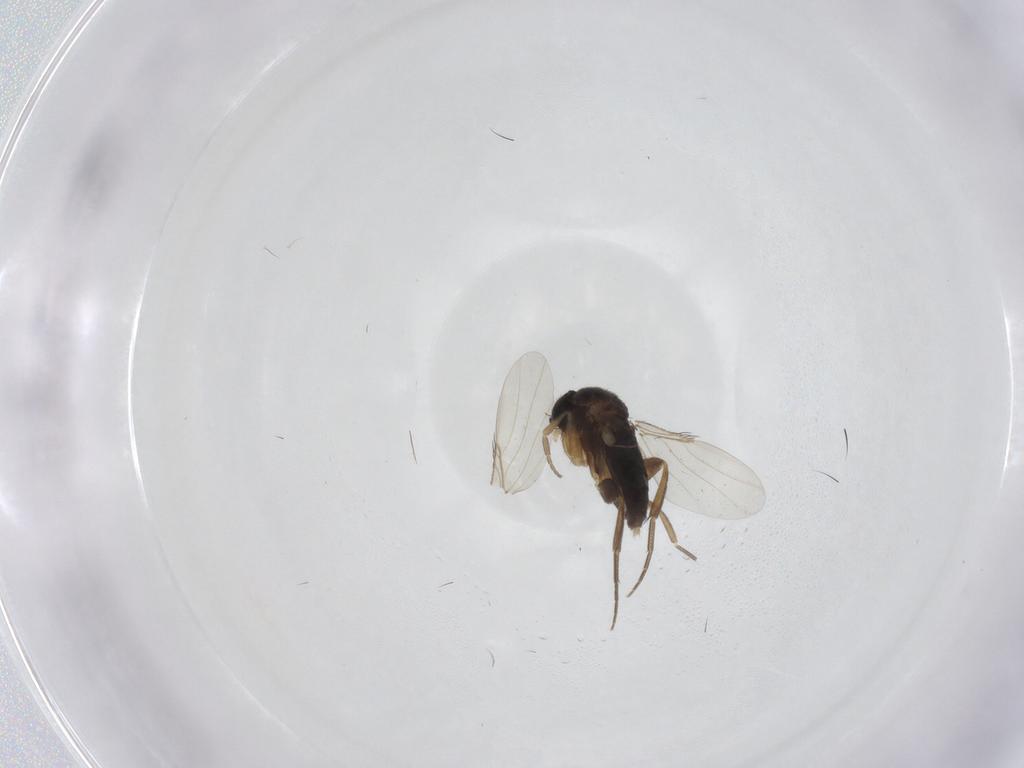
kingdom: Animalia
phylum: Arthropoda
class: Insecta
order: Diptera
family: Phoridae
